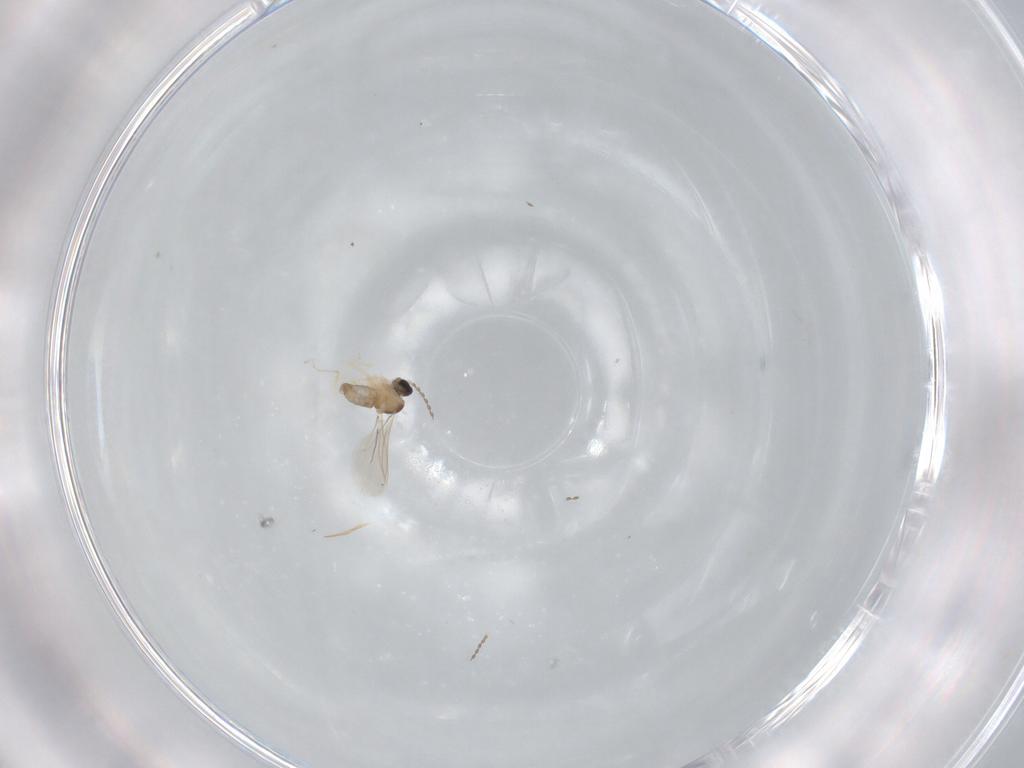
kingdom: Animalia
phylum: Arthropoda
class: Insecta
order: Diptera
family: Cecidomyiidae
